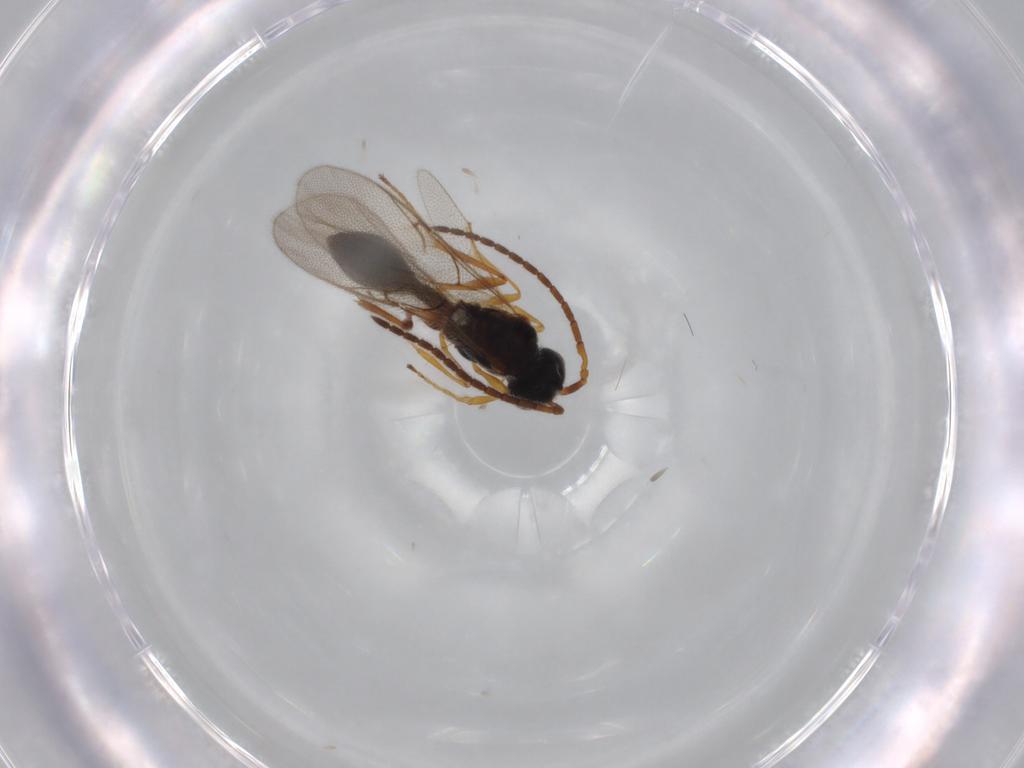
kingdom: Animalia
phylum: Arthropoda
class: Insecta
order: Hymenoptera
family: Braconidae
